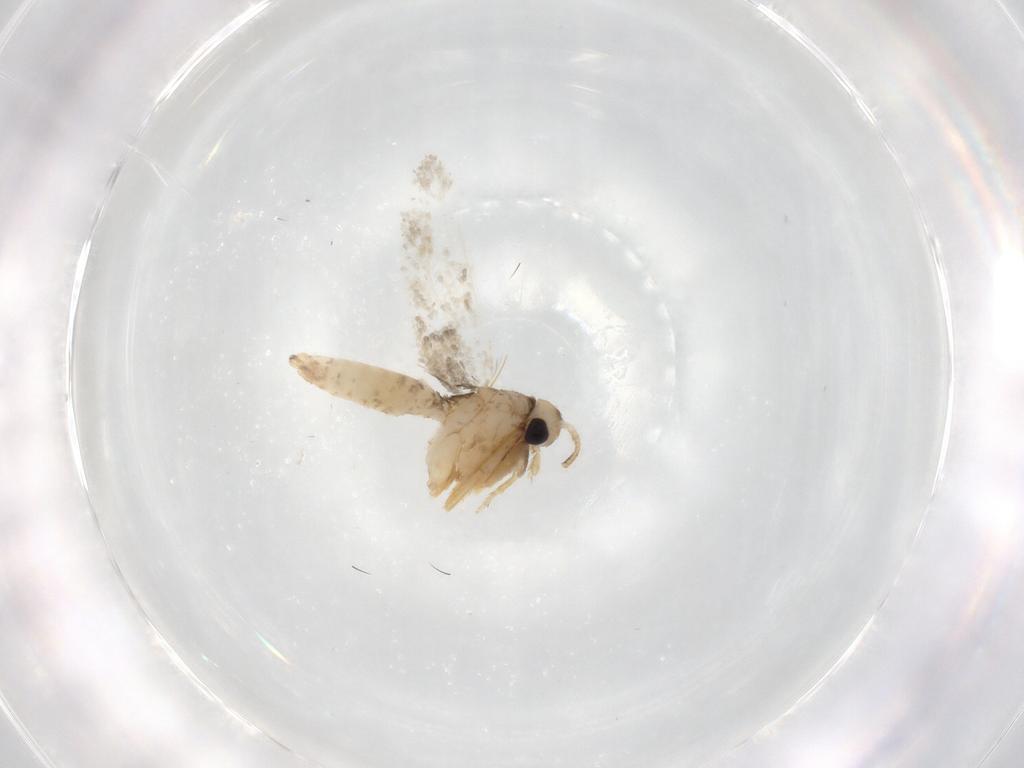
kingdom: Animalia
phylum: Arthropoda
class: Insecta
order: Lepidoptera
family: Psychidae
